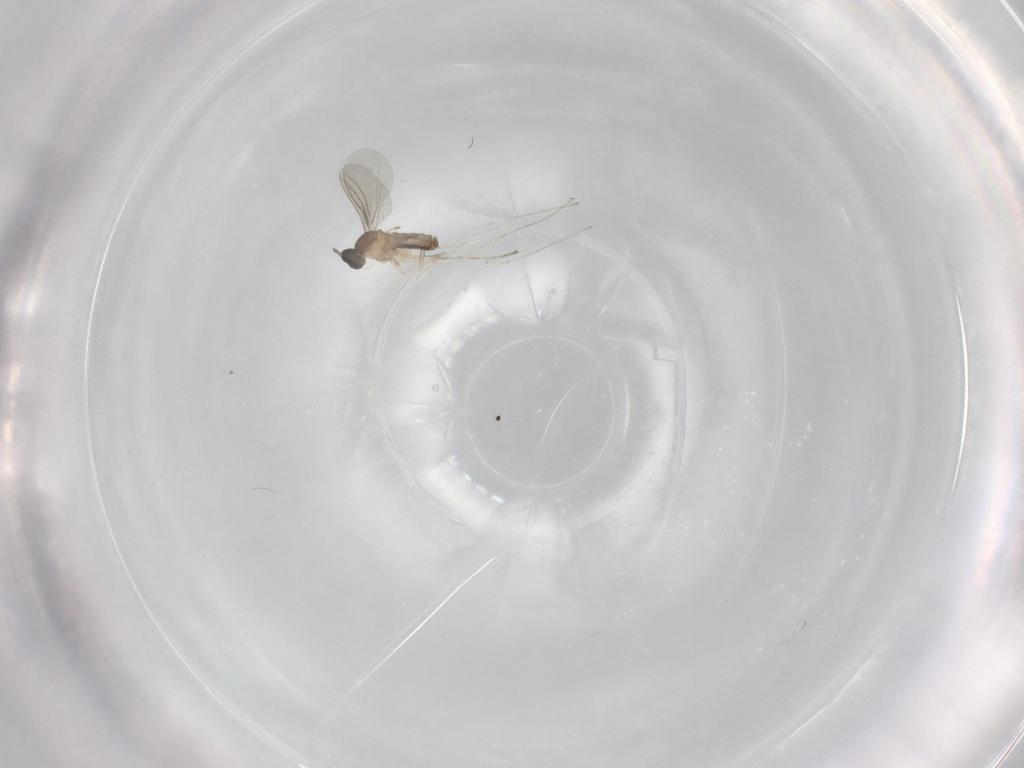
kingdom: Animalia
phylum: Arthropoda
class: Insecta
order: Diptera
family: Cecidomyiidae
